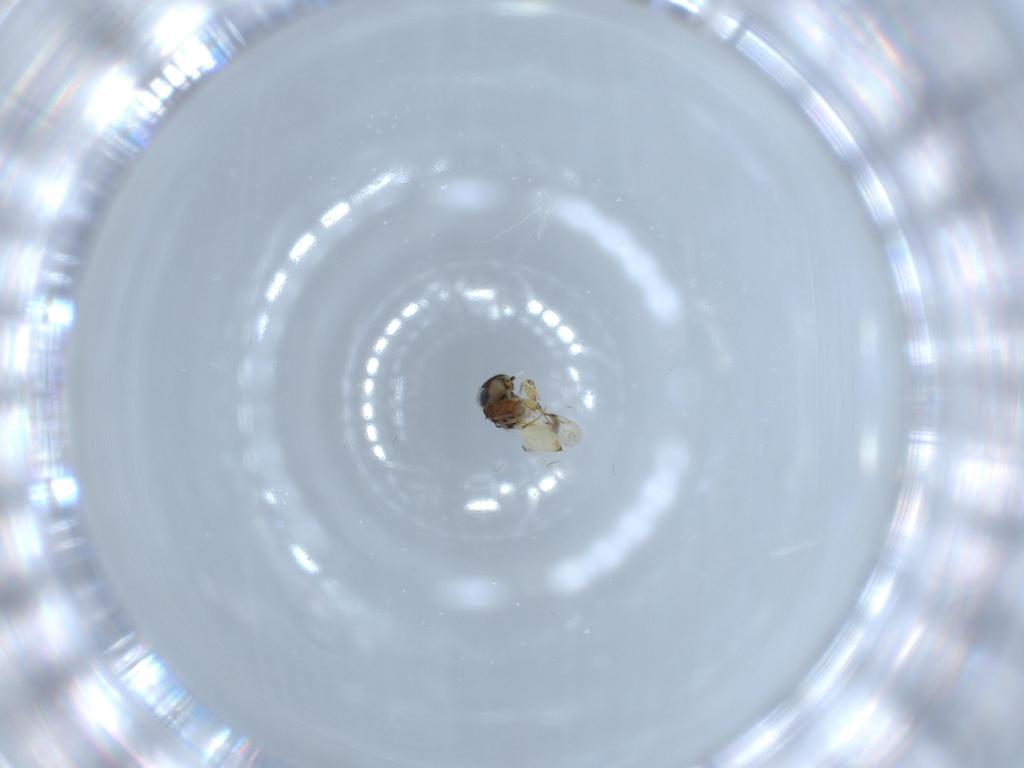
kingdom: Animalia
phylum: Arthropoda
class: Insecta
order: Hymenoptera
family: Scelionidae
